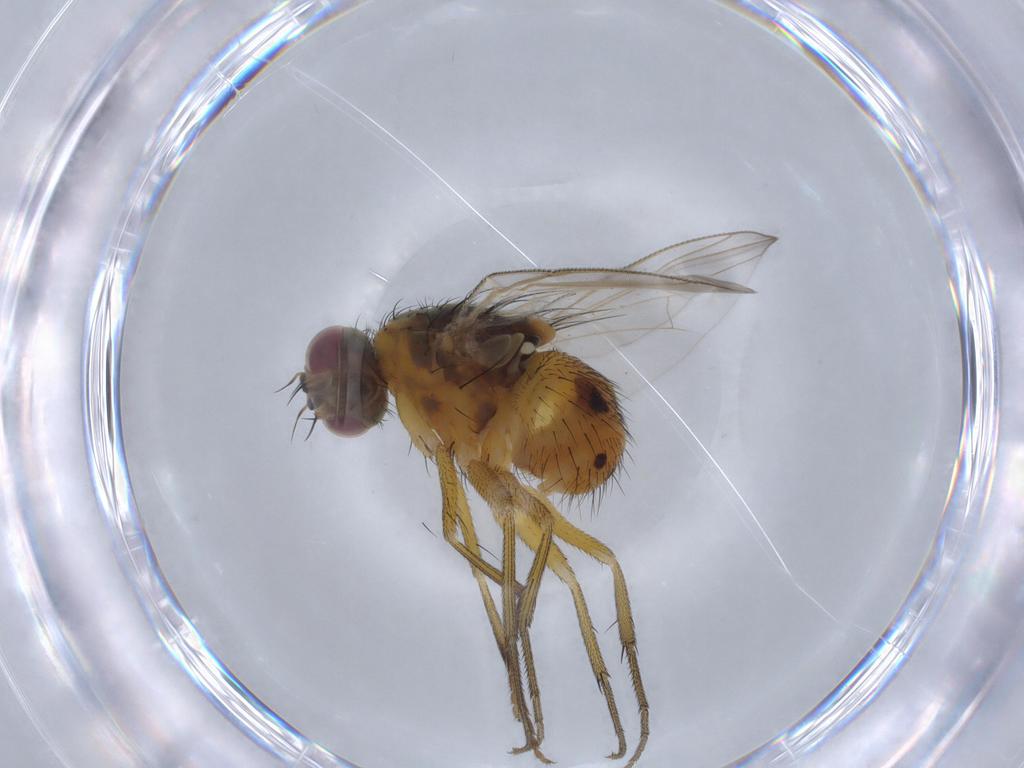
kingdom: Animalia
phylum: Arthropoda
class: Insecta
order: Diptera
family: Muscidae
